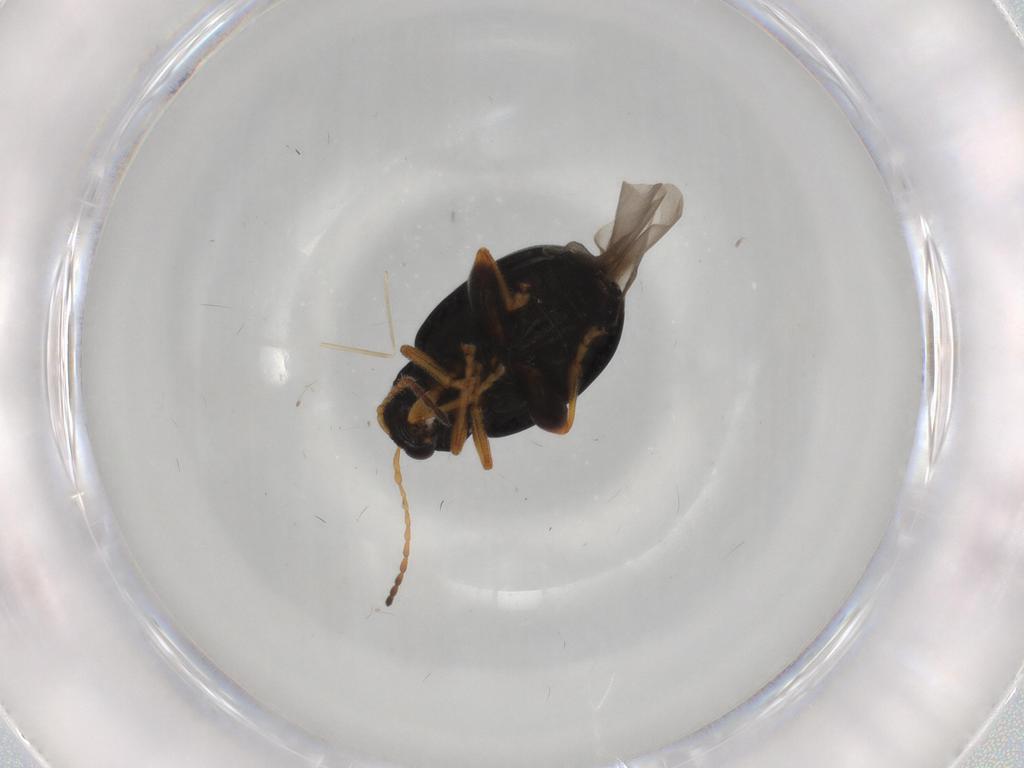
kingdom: Animalia
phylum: Arthropoda
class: Insecta
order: Coleoptera
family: Chrysomelidae
